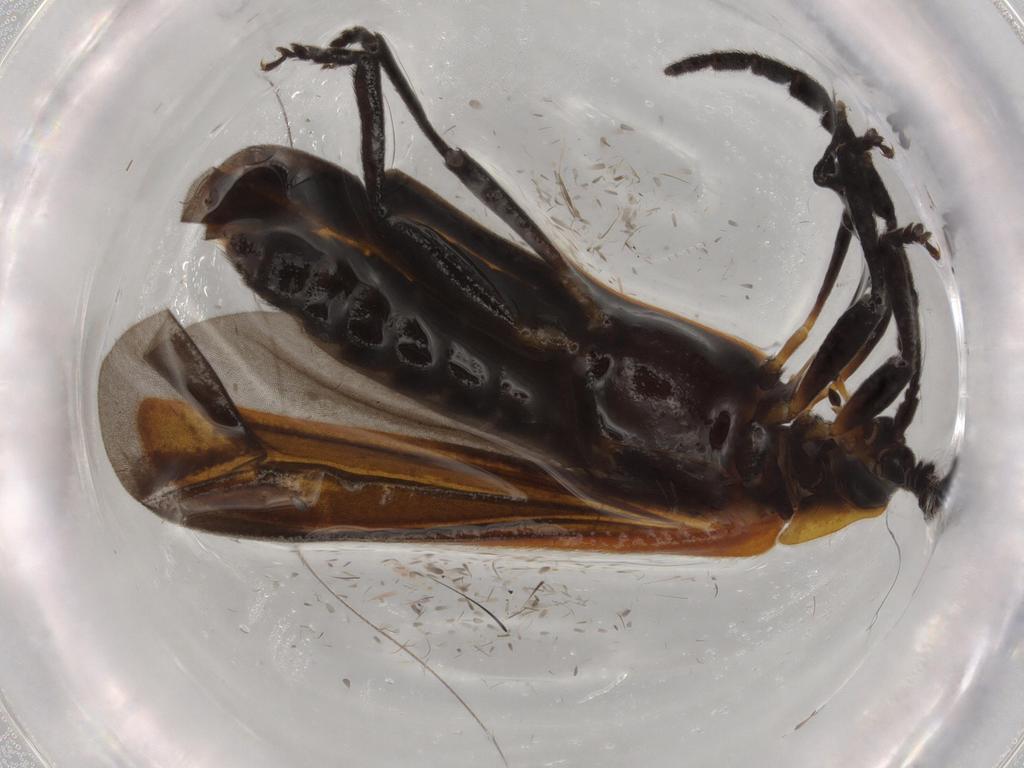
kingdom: Animalia
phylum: Arthropoda
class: Insecta
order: Coleoptera
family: Lycidae
